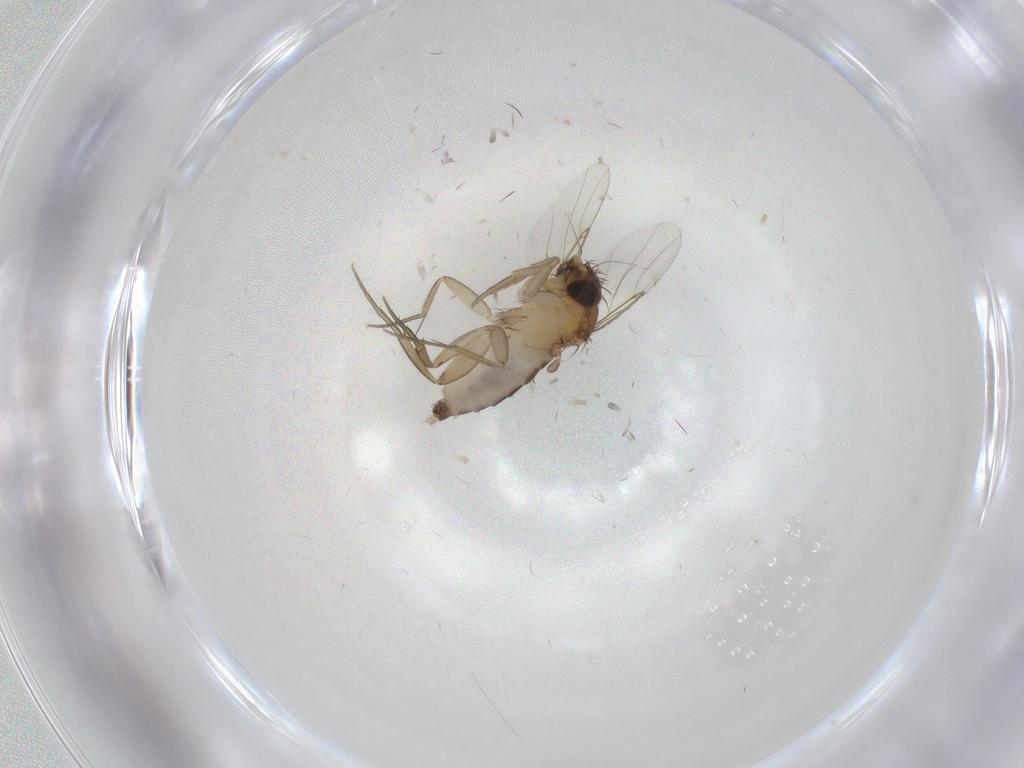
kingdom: Animalia
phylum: Arthropoda
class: Insecta
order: Diptera
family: Phoridae
